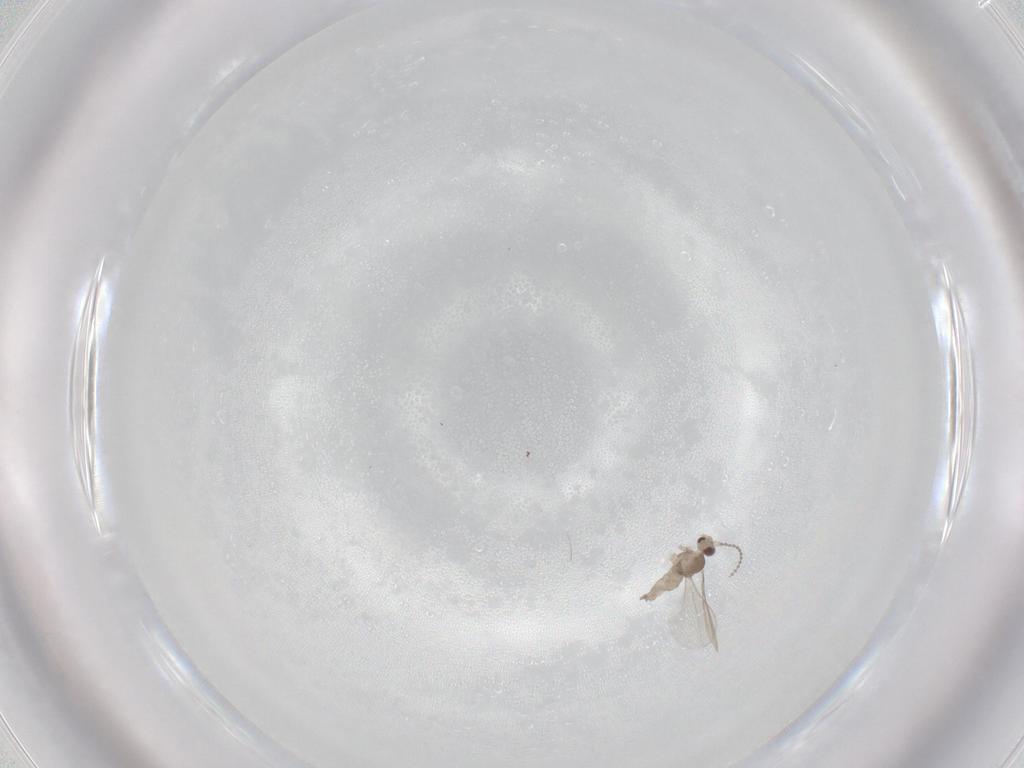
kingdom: Animalia
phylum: Arthropoda
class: Insecta
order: Diptera
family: Cecidomyiidae
